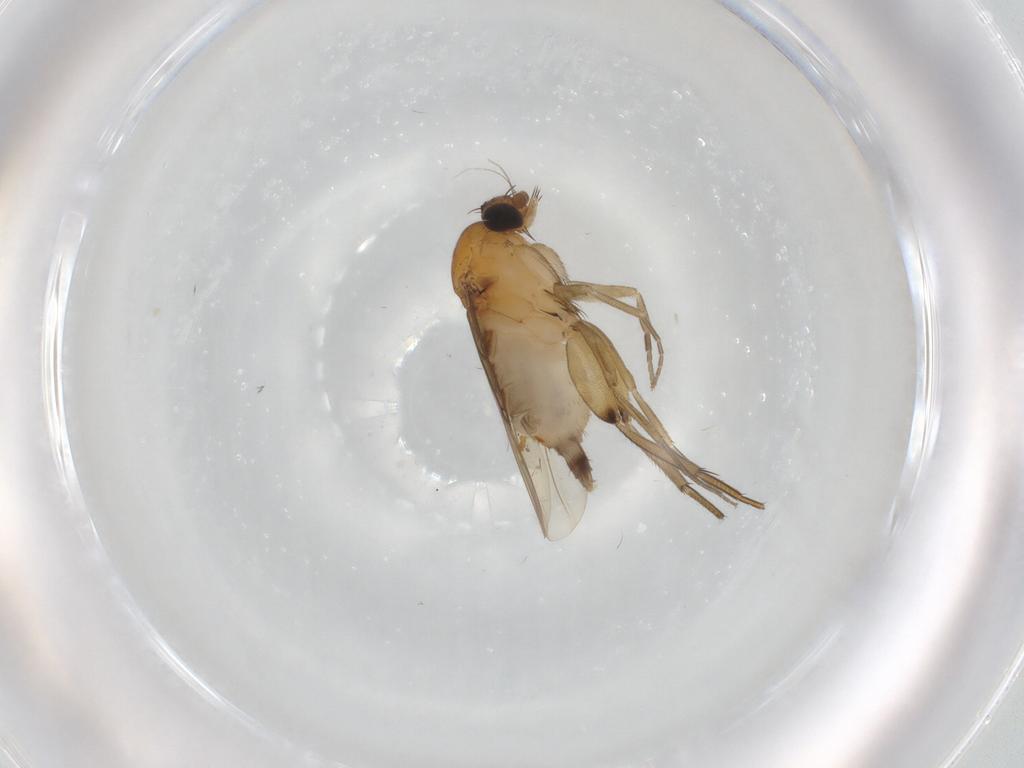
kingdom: Animalia
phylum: Arthropoda
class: Insecta
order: Diptera
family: Phoridae
